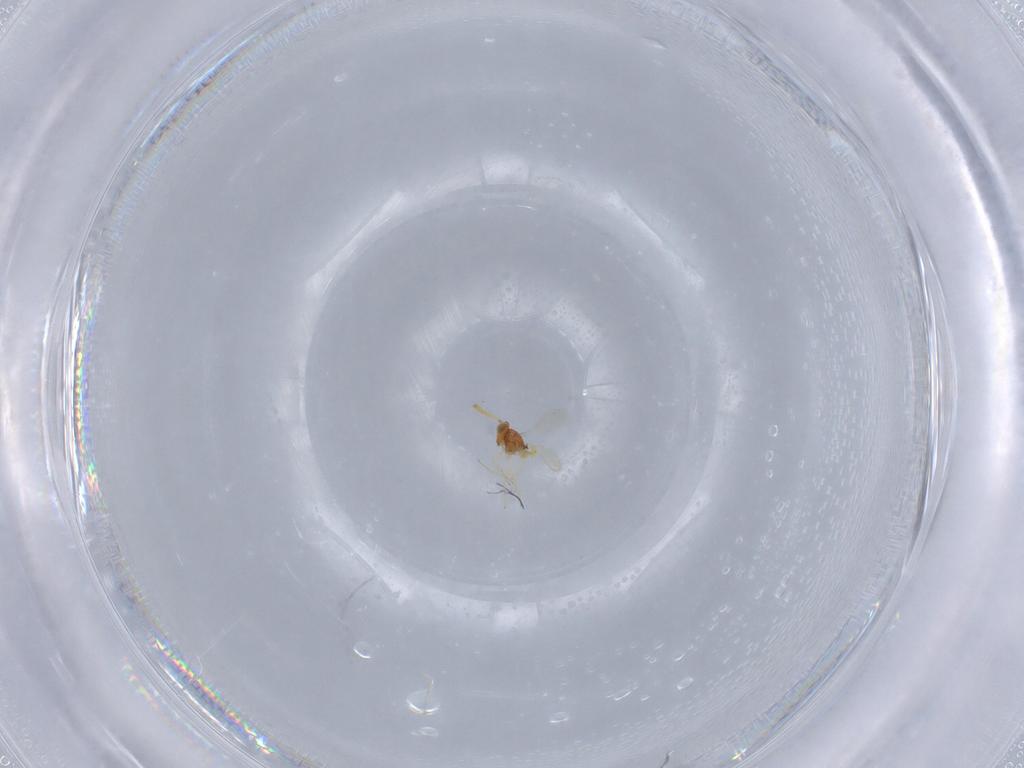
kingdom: Animalia
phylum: Arthropoda
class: Insecta
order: Hymenoptera
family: Aphelinidae
